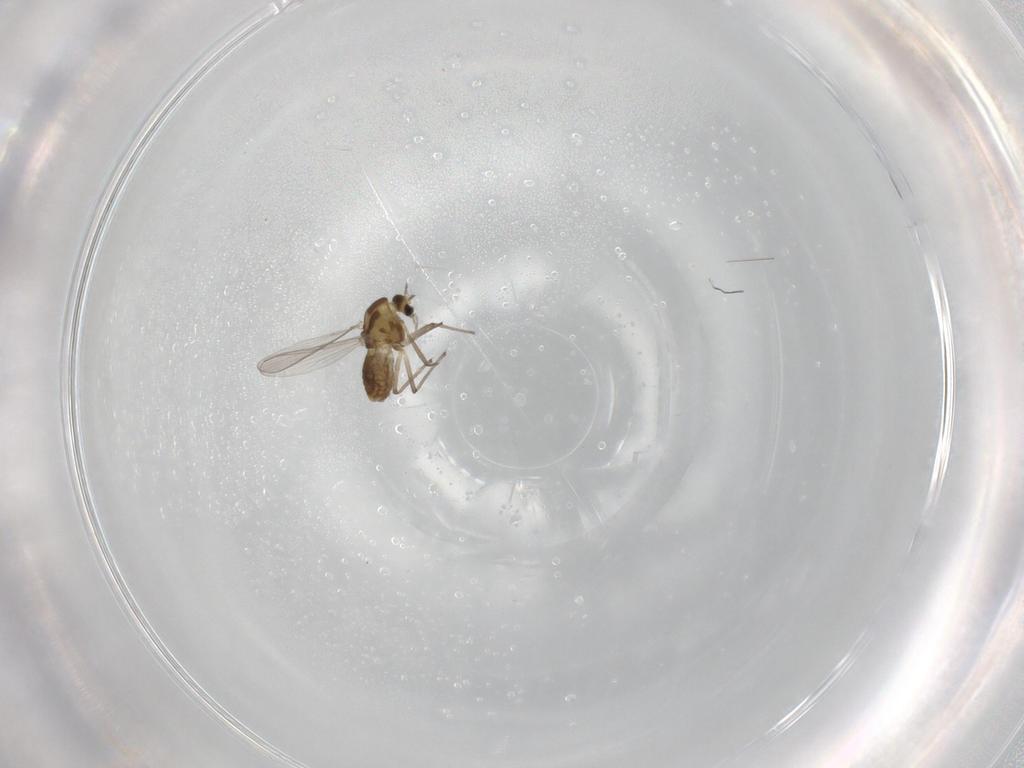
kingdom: Animalia
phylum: Arthropoda
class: Insecta
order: Diptera
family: Chironomidae
